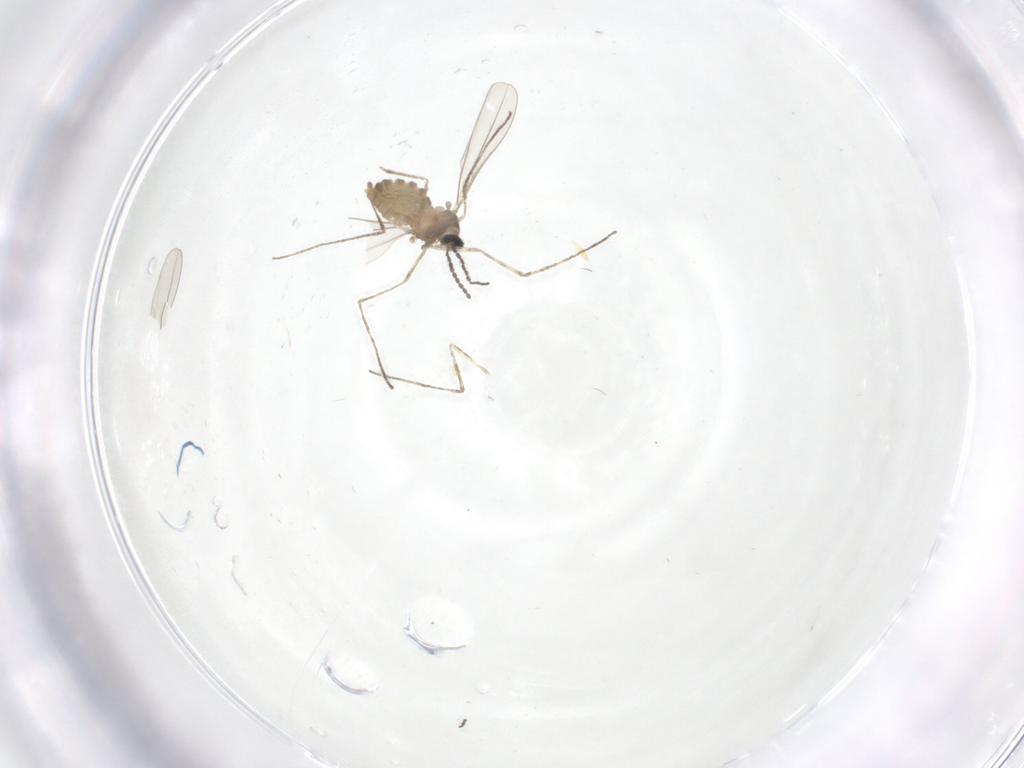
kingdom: Animalia
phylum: Arthropoda
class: Insecta
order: Diptera
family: Cecidomyiidae
